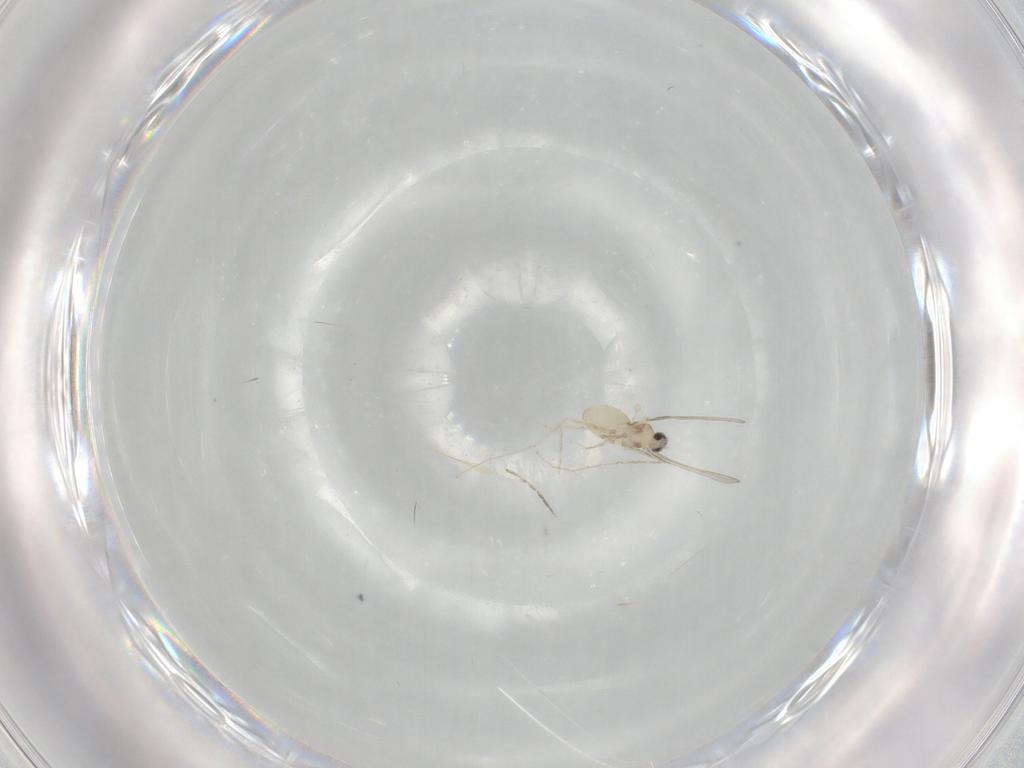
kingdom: Animalia
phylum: Arthropoda
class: Insecta
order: Diptera
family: Cecidomyiidae
